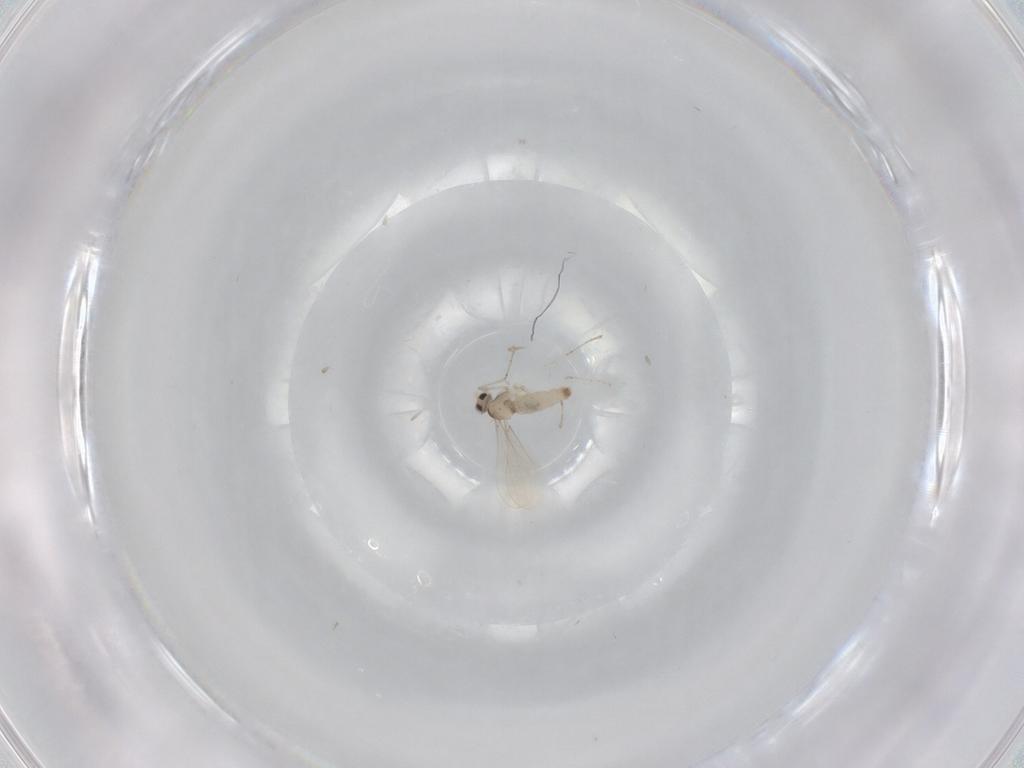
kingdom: Animalia
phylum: Arthropoda
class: Insecta
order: Diptera
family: Cecidomyiidae
